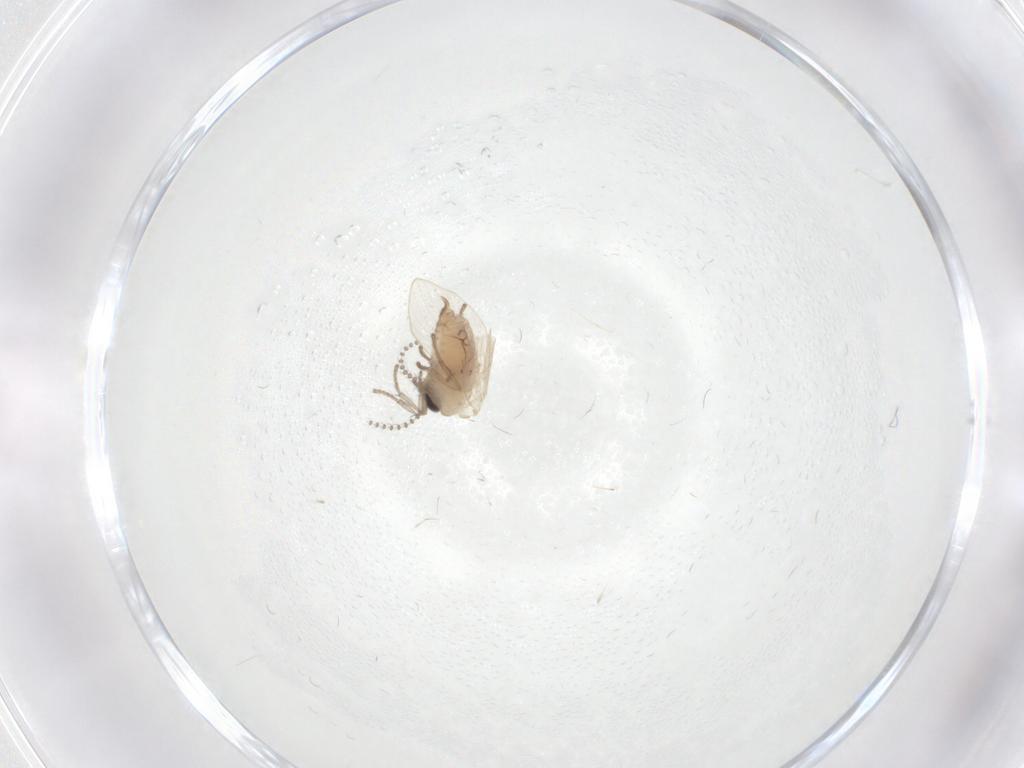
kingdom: Animalia
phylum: Arthropoda
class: Insecta
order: Diptera
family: Psychodidae
